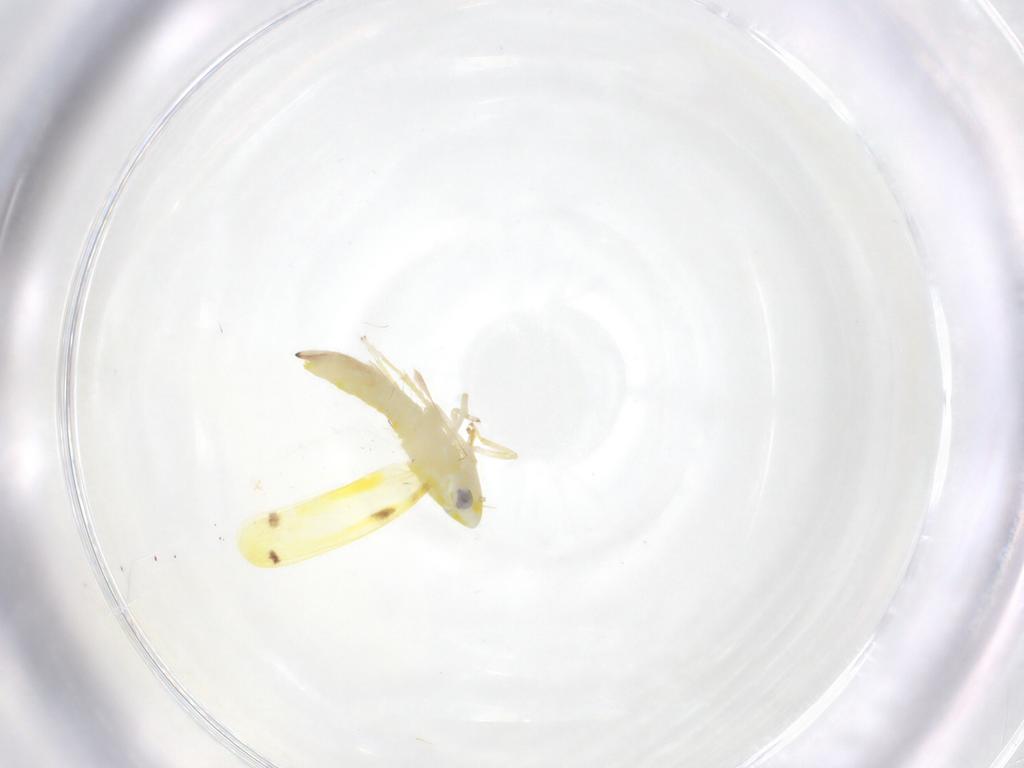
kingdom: Animalia
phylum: Arthropoda
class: Insecta
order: Hemiptera
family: Cicadellidae
